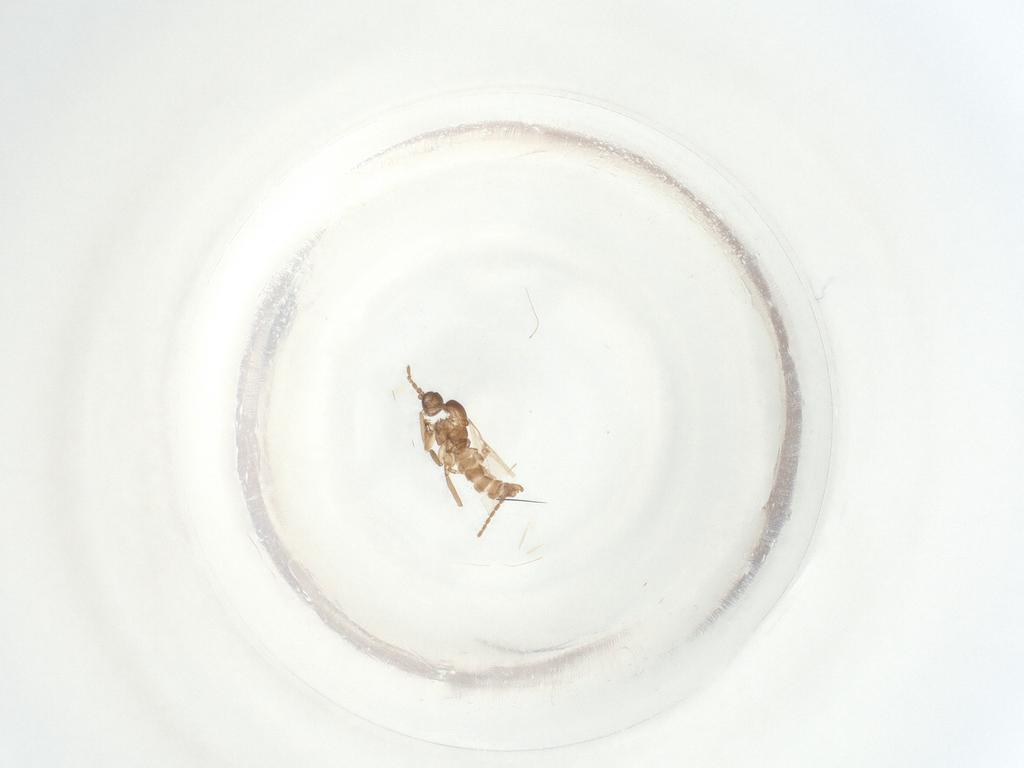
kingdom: Animalia
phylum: Arthropoda
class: Insecta
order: Diptera
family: Sciaridae
